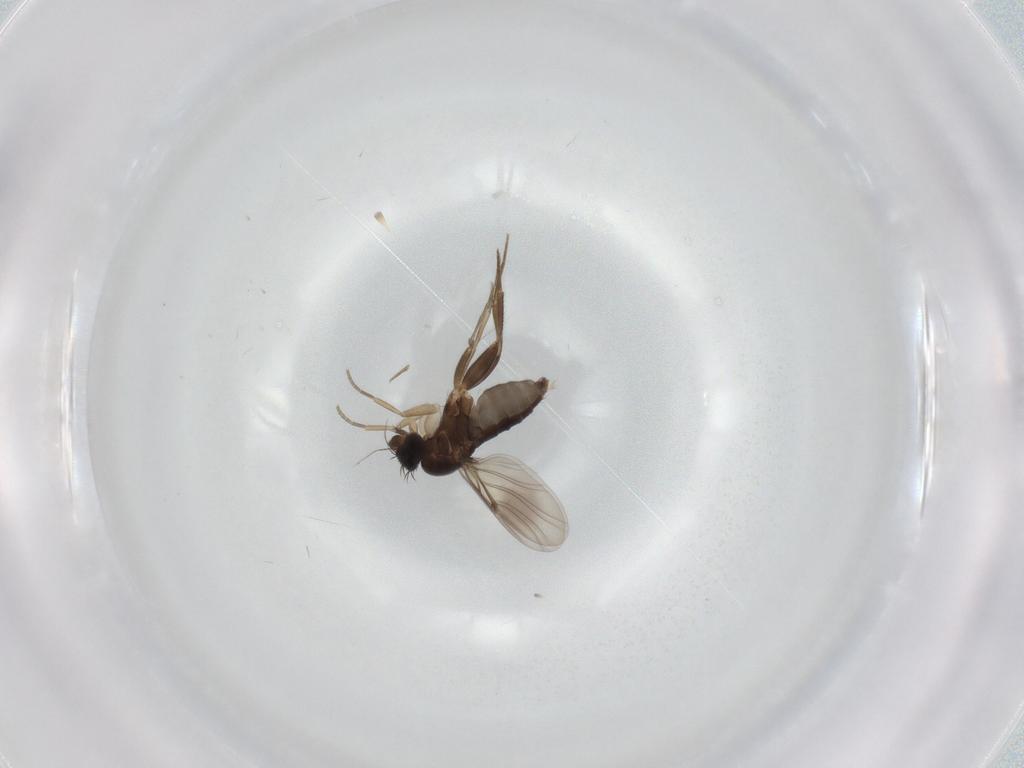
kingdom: Animalia
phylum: Arthropoda
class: Insecta
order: Diptera
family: Phoridae
